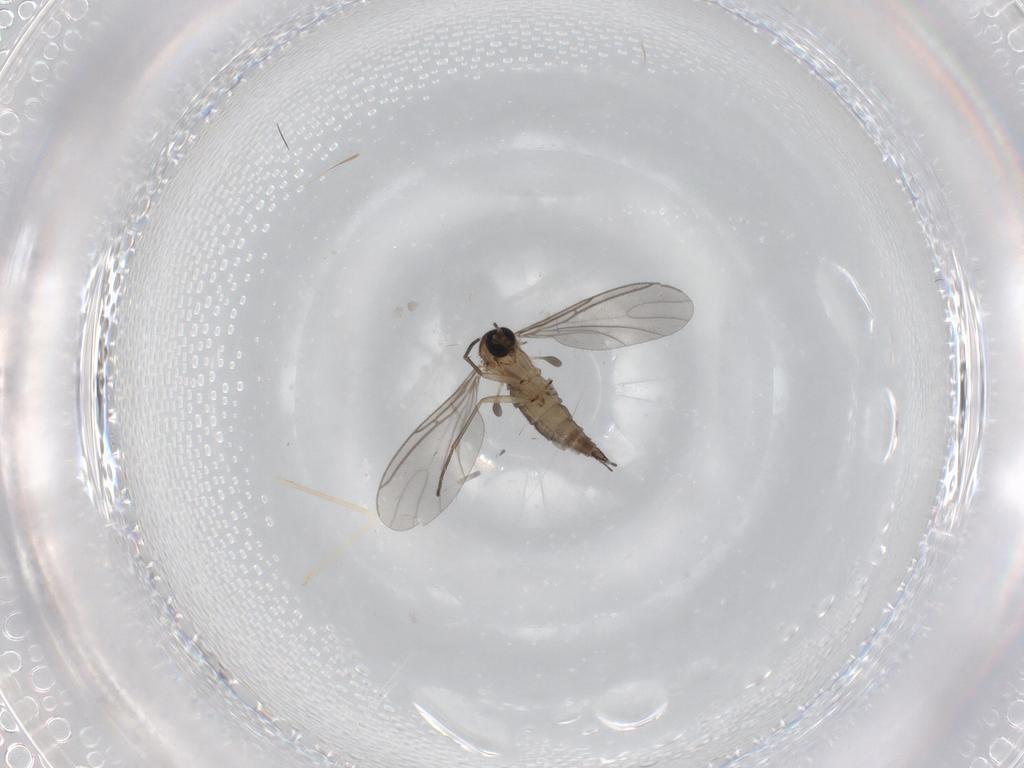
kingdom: Animalia
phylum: Arthropoda
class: Insecta
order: Diptera
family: Sciaridae
